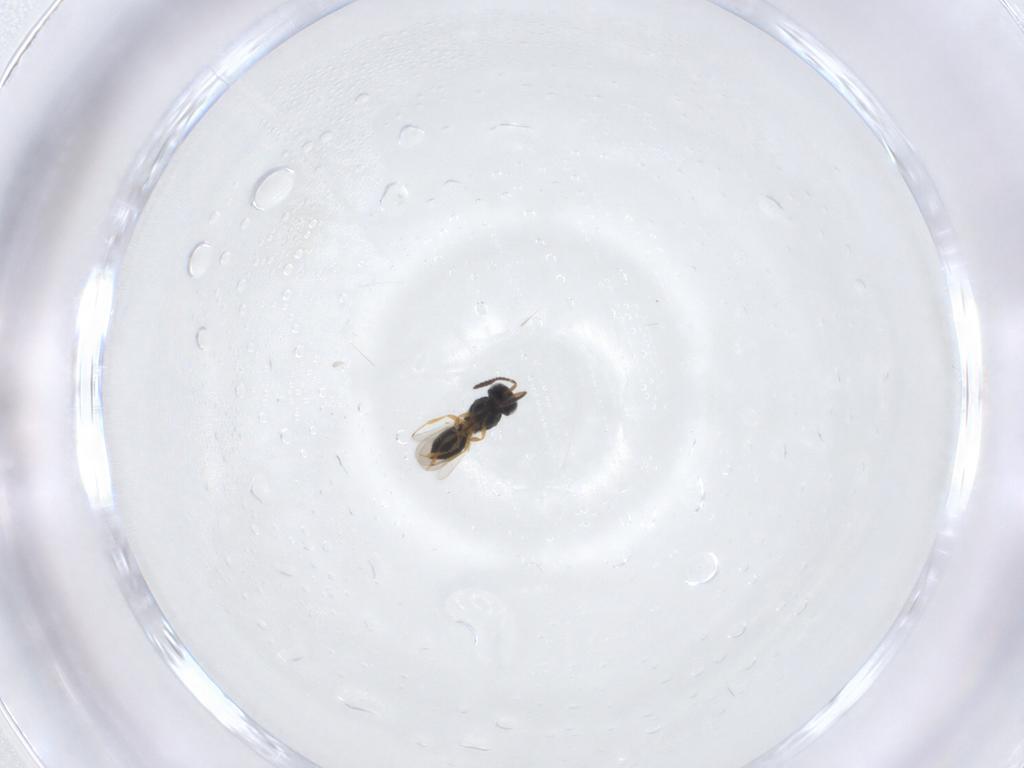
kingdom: Animalia
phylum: Arthropoda
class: Insecta
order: Hymenoptera
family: Scelionidae
